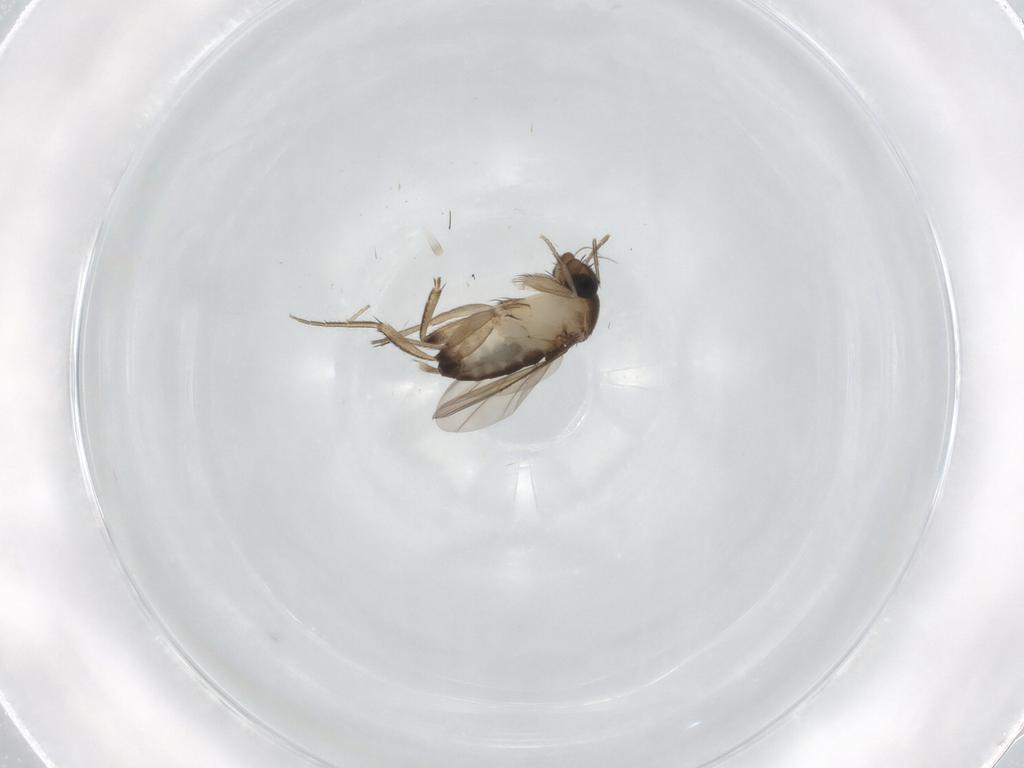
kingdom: Animalia
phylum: Arthropoda
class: Insecta
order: Diptera
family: Phoridae
